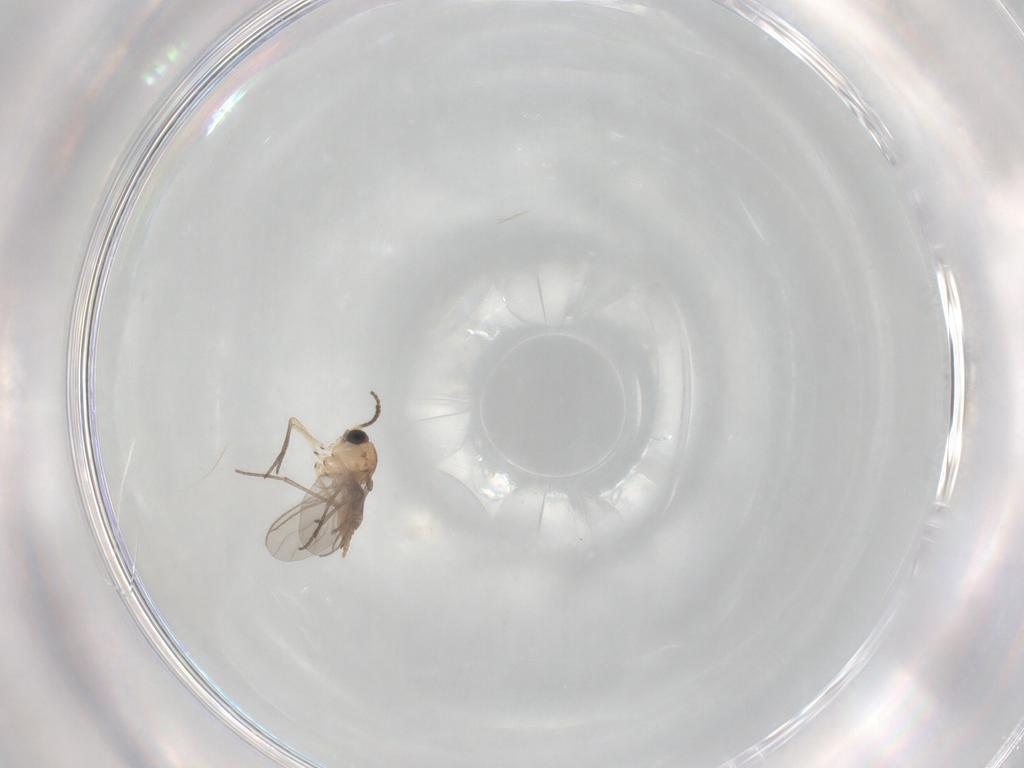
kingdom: Animalia
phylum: Arthropoda
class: Insecta
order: Diptera
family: Sciaridae
